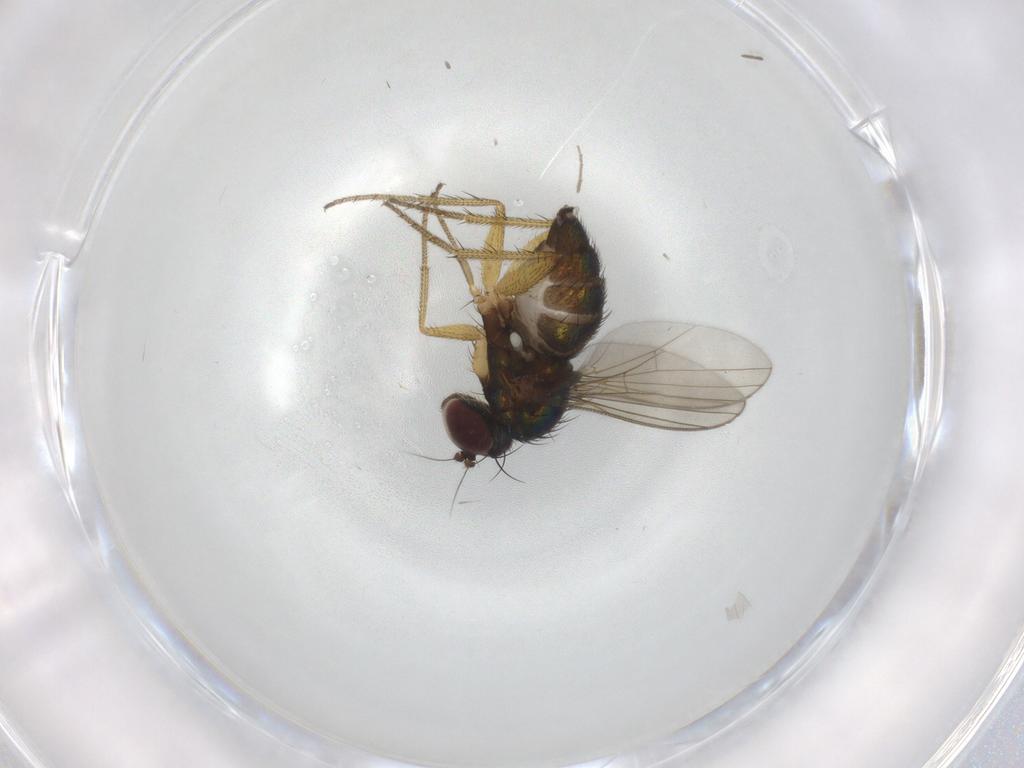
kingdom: Animalia
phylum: Arthropoda
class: Insecta
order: Diptera
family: Chironomidae
